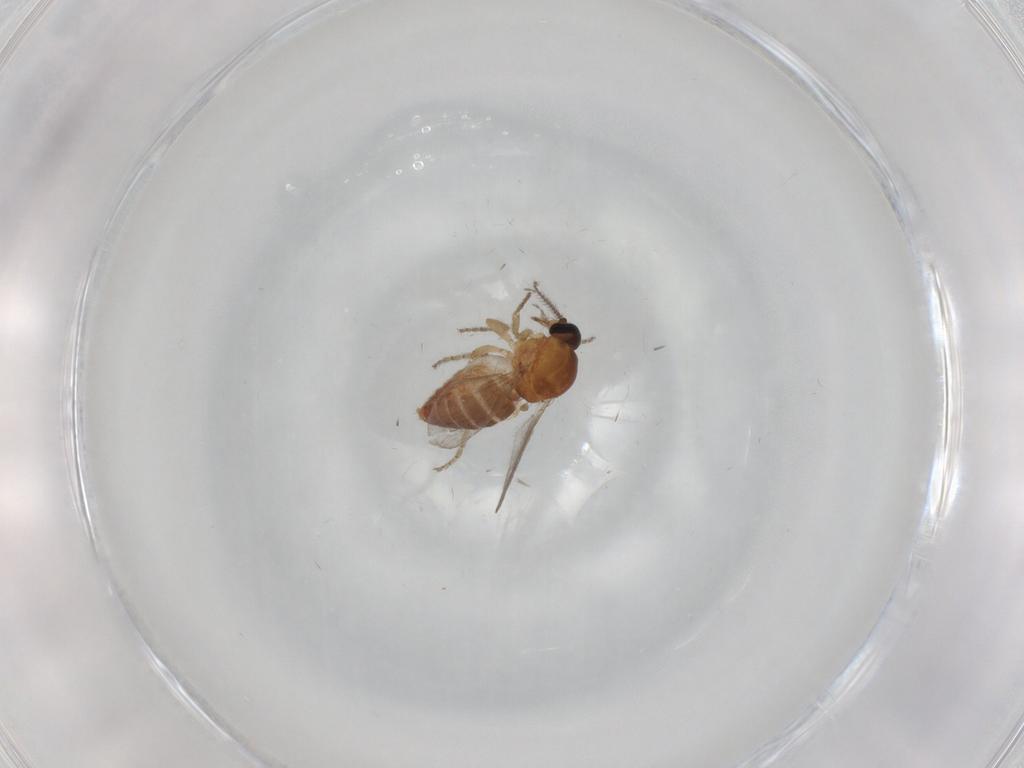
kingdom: Animalia
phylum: Arthropoda
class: Insecta
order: Diptera
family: Ceratopogonidae
